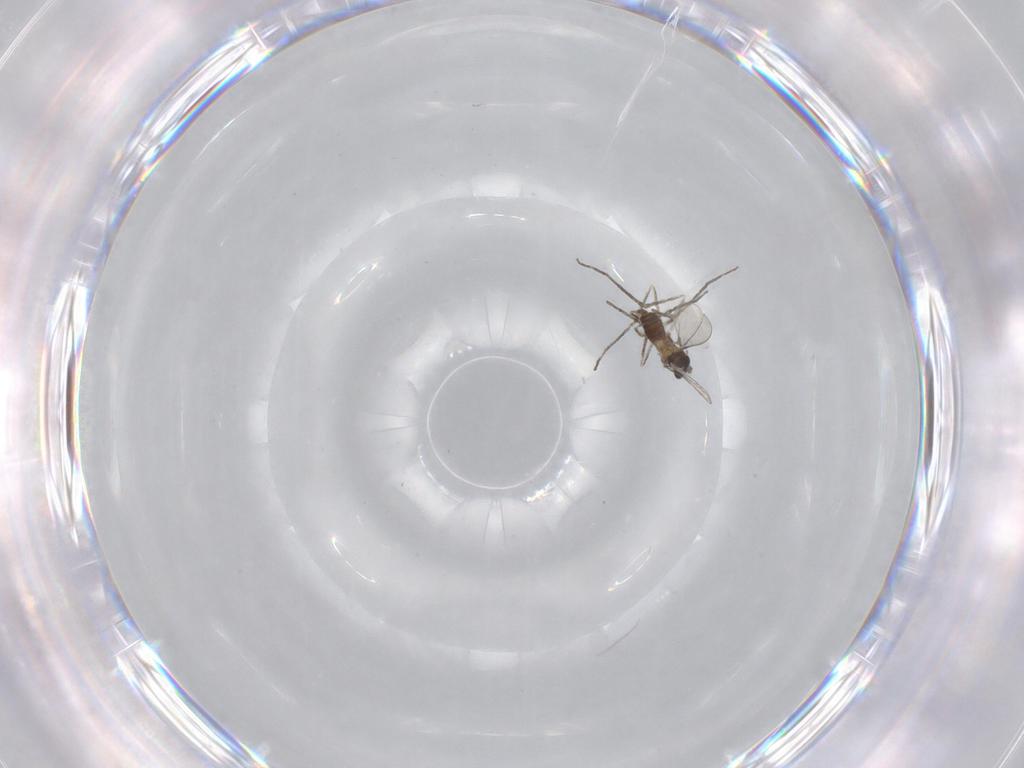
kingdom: Animalia
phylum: Arthropoda
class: Insecta
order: Diptera
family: Cecidomyiidae
